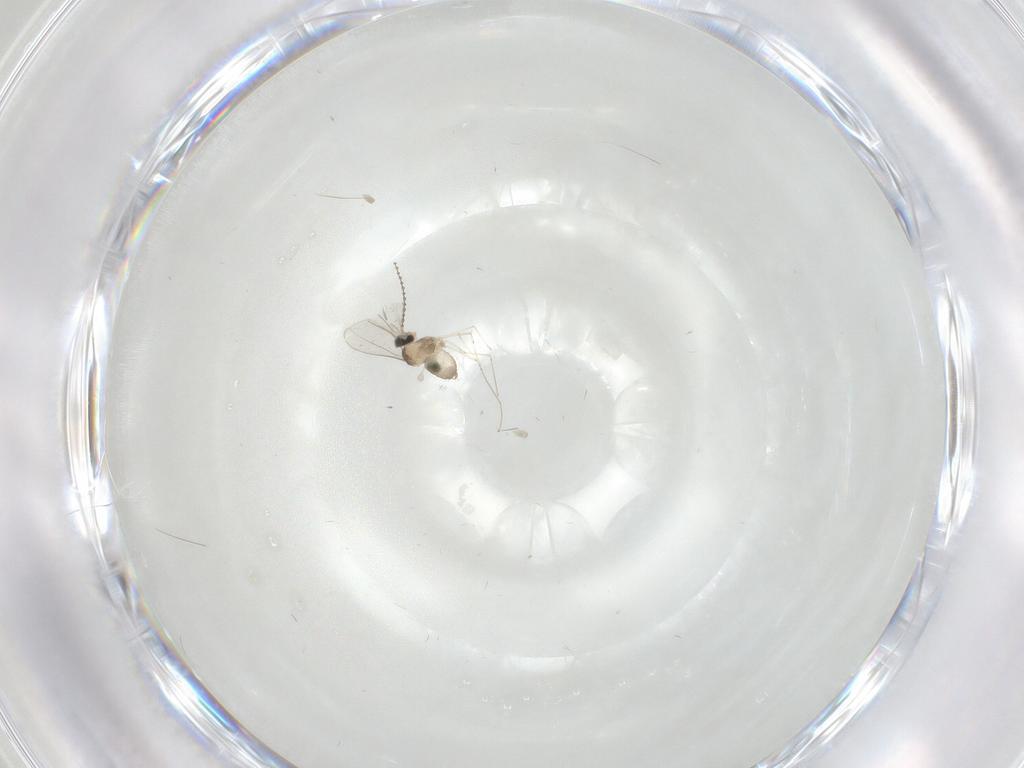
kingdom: Animalia
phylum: Arthropoda
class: Insecta
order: Diptera
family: Cecidomyiidae
